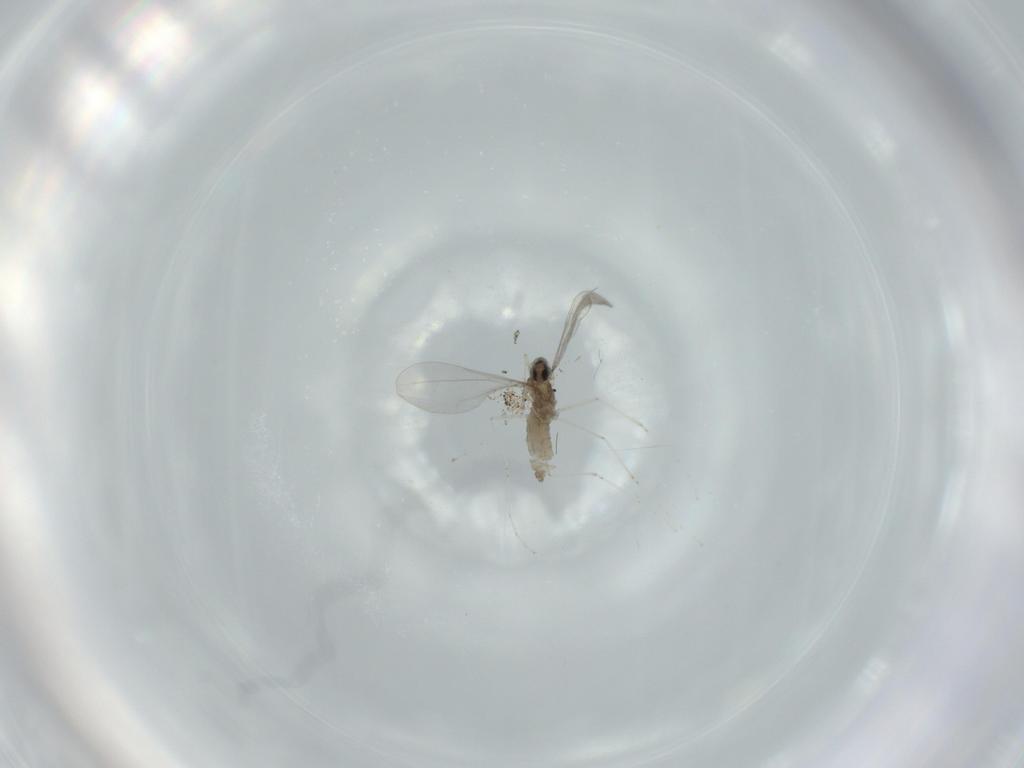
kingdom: Animalia
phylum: Arthropoda
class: Insecta
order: Diptera
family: Cecidomyiidae
